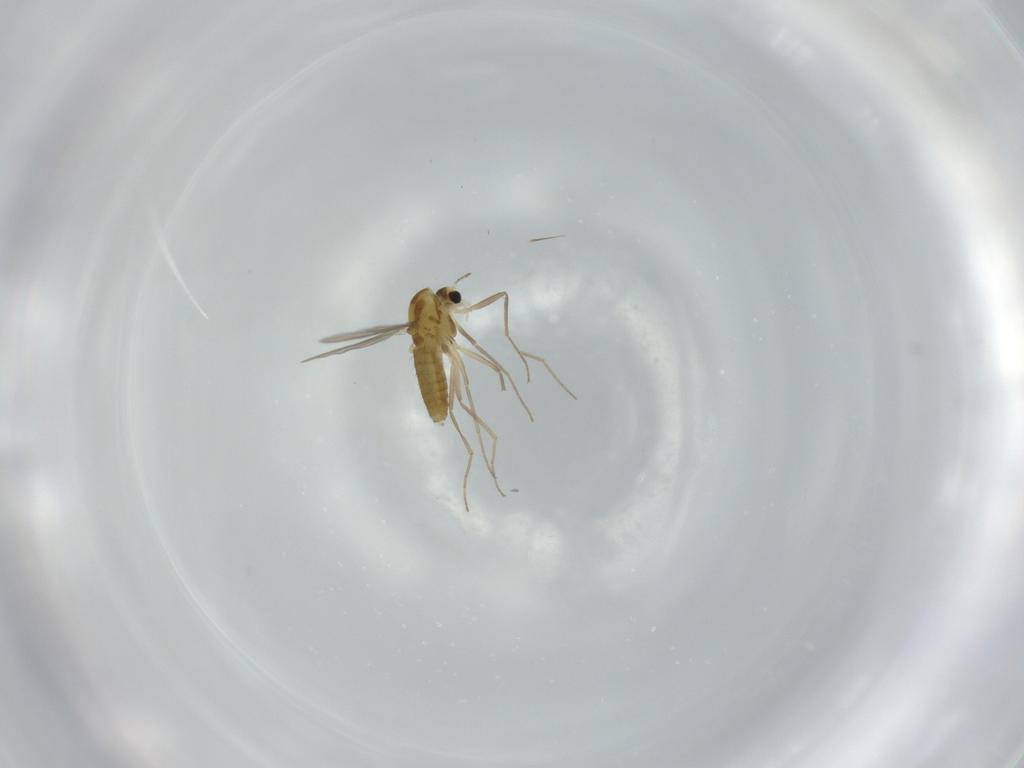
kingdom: Animalia
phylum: Arthropoda
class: Insecta
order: Diptera
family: Chironomidae
